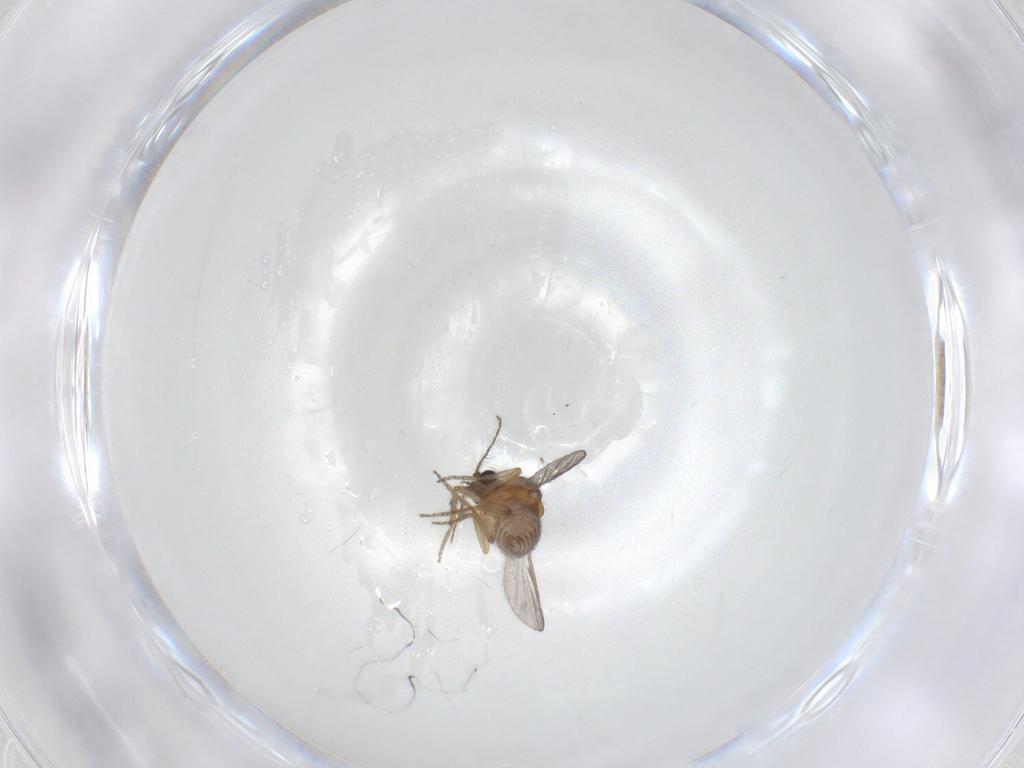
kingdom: Animalia
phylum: Arthropoda
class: Insecta
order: Diptera
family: Ceratopogonidae
